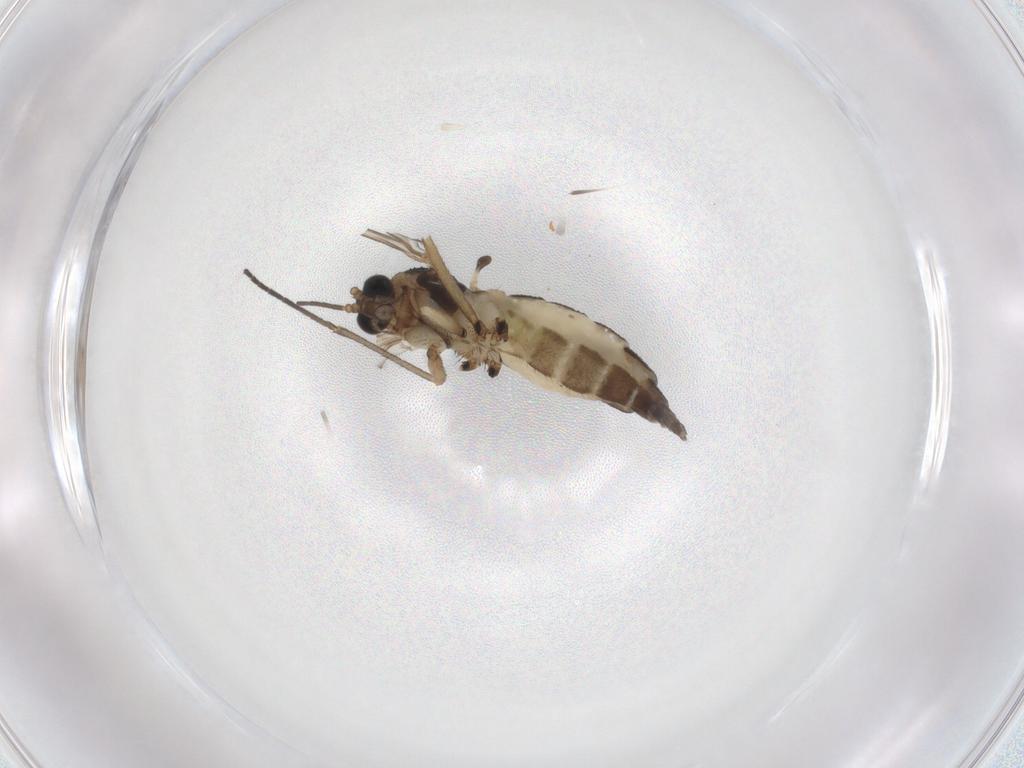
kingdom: Animalia
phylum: Arthropoda
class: Insecta
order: Diptera
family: Sciaridae
